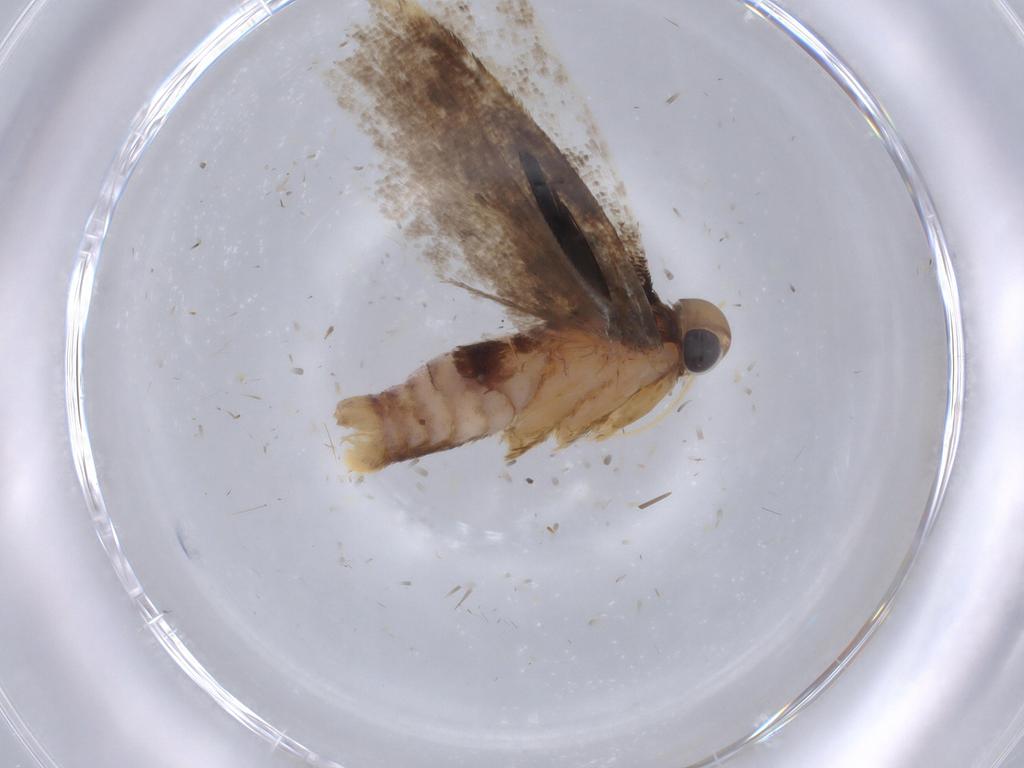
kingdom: Animalia
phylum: Arthropoda
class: Insecta
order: Lepidoptera
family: Gelechiidae
